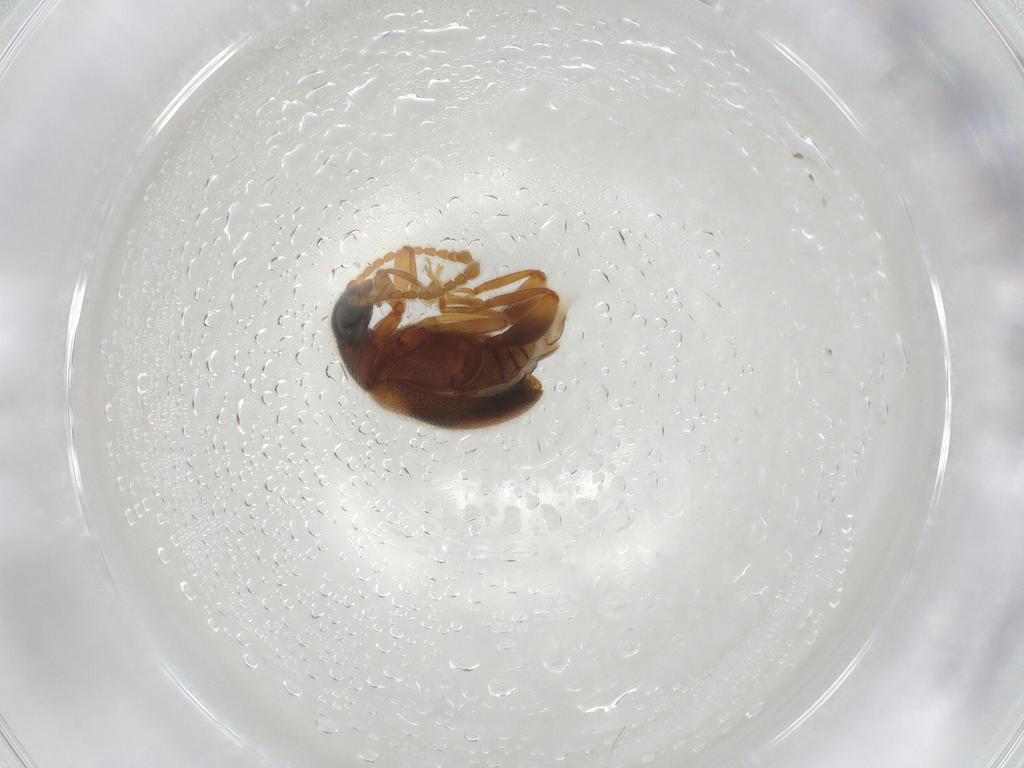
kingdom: Animalia
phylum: Arthropoda
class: Insecta
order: Coleoptera
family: Aderidae
